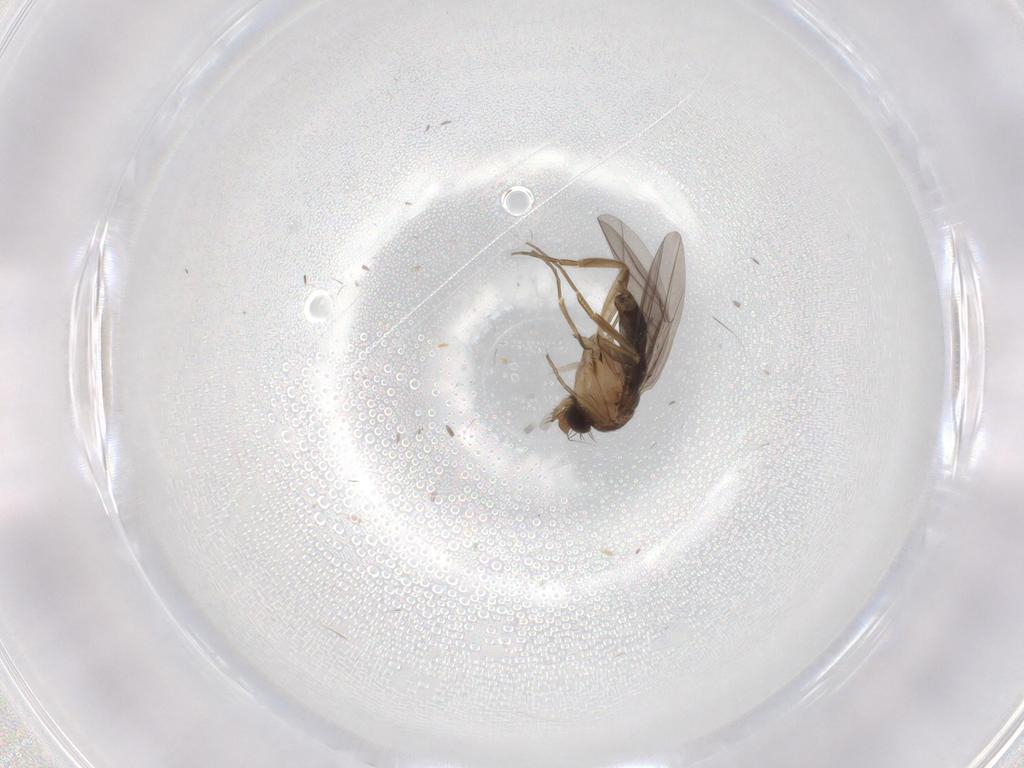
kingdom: Animalia
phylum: Arthropoda
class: Insecta
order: Diptera
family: Phoridae
